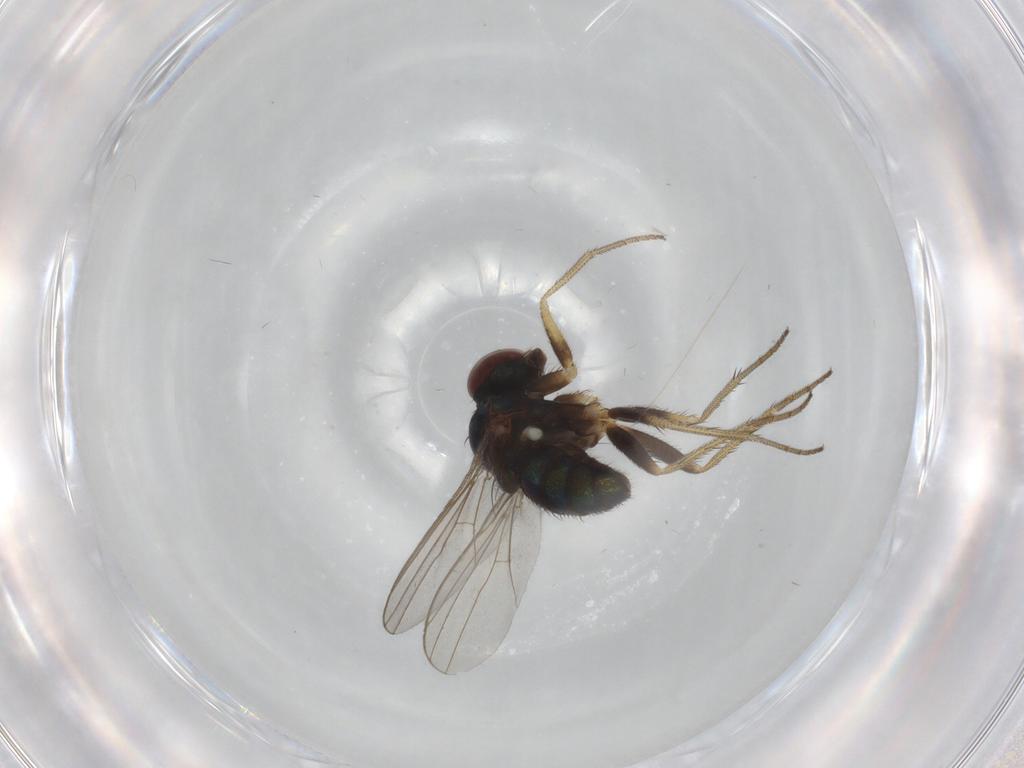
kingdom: Animalia
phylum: Arthropoda
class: Insecta
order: Diptera
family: Dolichopodidae
